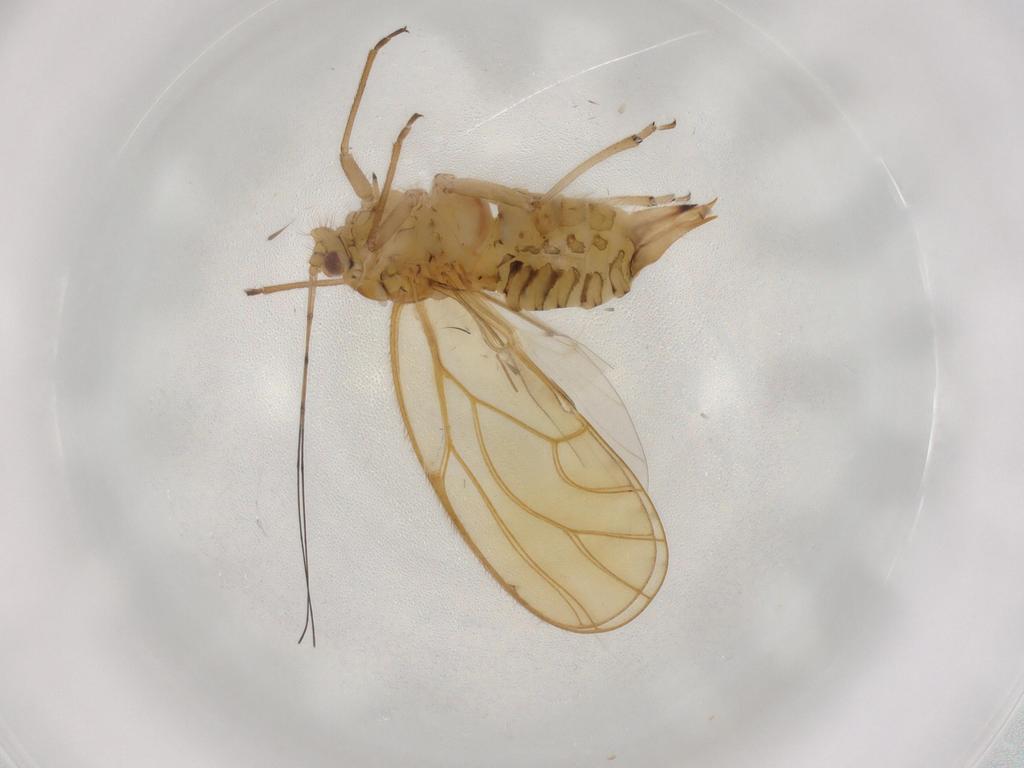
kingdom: Animalia
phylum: Arthropoda
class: Insecta
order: Hemiptera
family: Psyllidae
